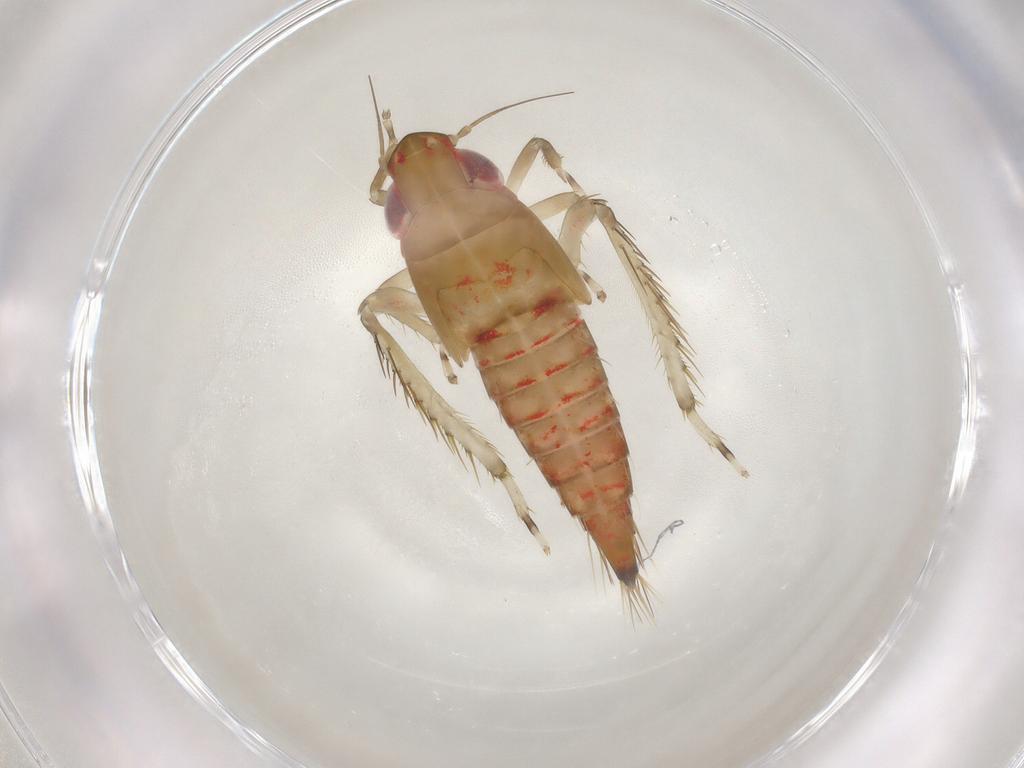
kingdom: Animalia
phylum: Arthropoda
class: Insecta
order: Hemiptera
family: Cicadellidae
